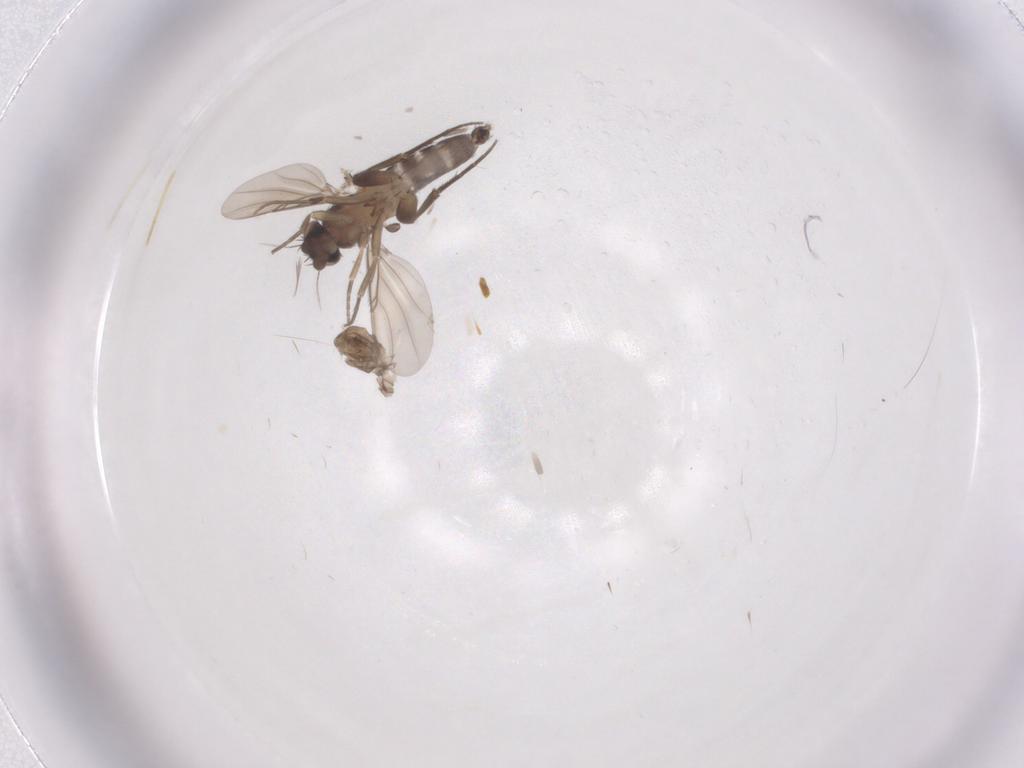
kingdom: Animalia
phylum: Arthropoda
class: Insecta
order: Diptera
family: Phoridae
